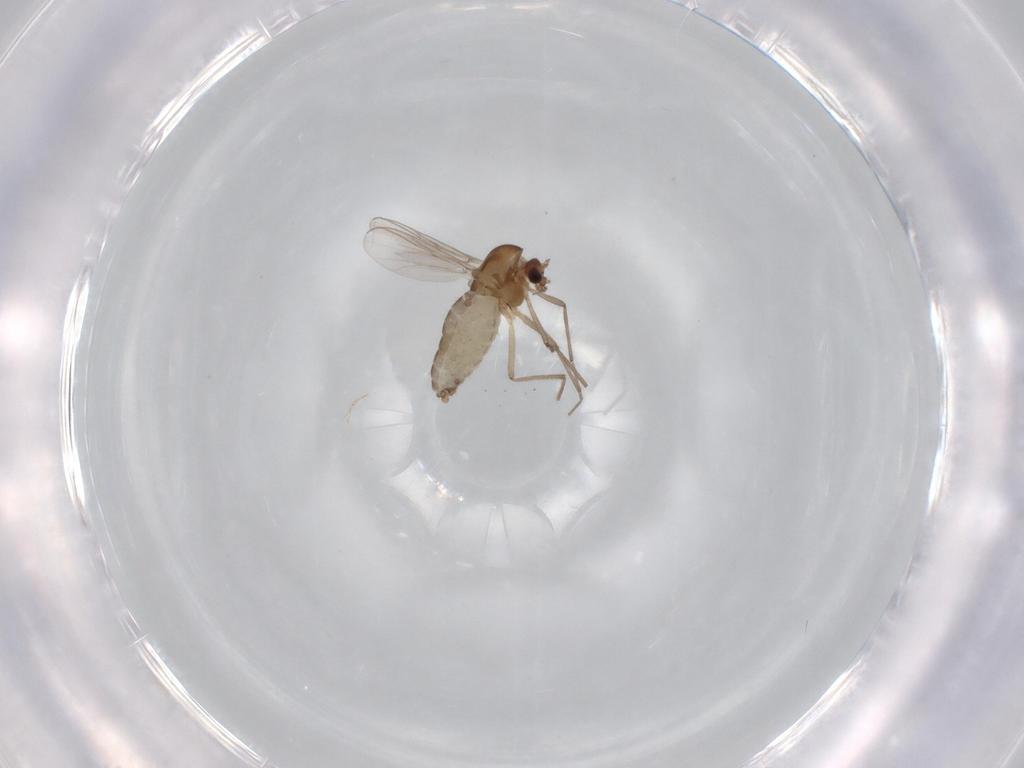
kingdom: Animalia
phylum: Arthropoda
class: Insecta
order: Diptera
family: Chironomidae
